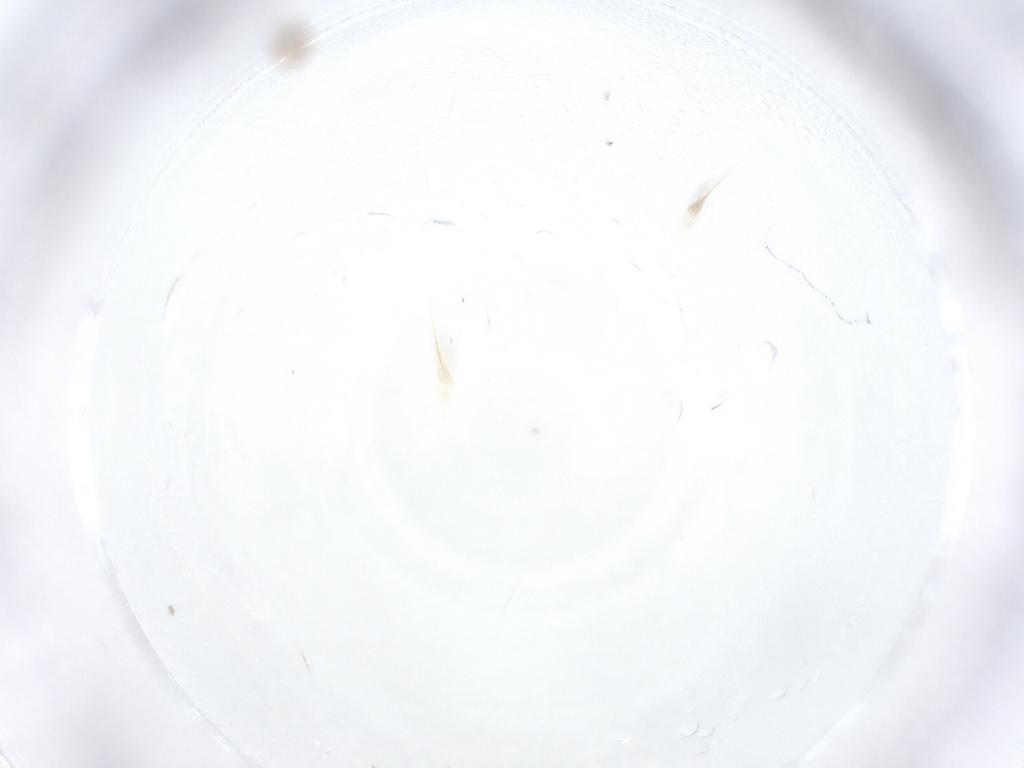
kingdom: Animalia
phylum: Arthropoda
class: Insecta
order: Hymenoptera
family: Trichogrammatidae
